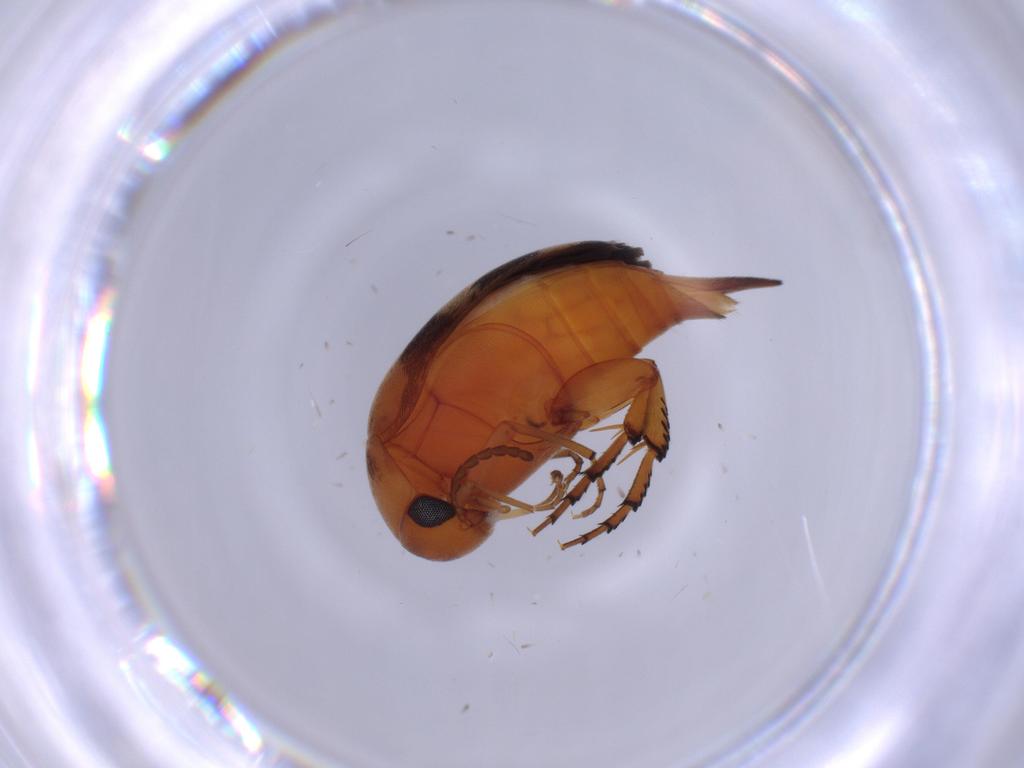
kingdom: Animalia
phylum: Arthropoda
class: Insecta
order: Coleoptera
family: Mordellidae
